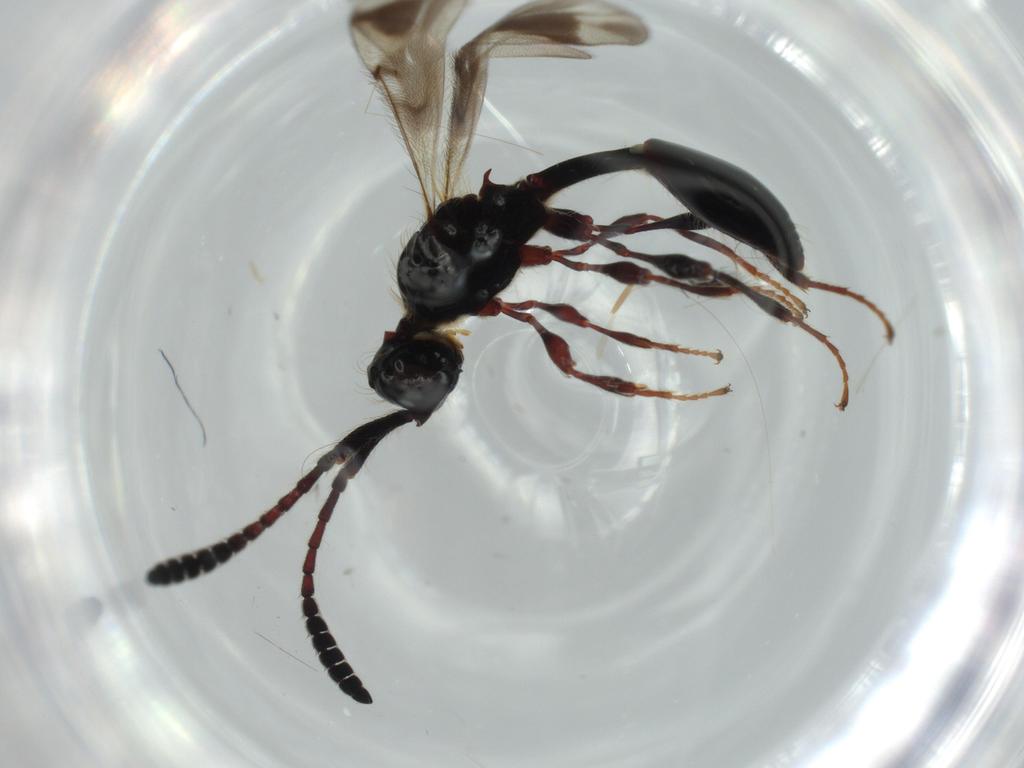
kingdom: Animalia
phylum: Arthropoda
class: Insecta
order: Hymenoptera
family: Diapriidae
